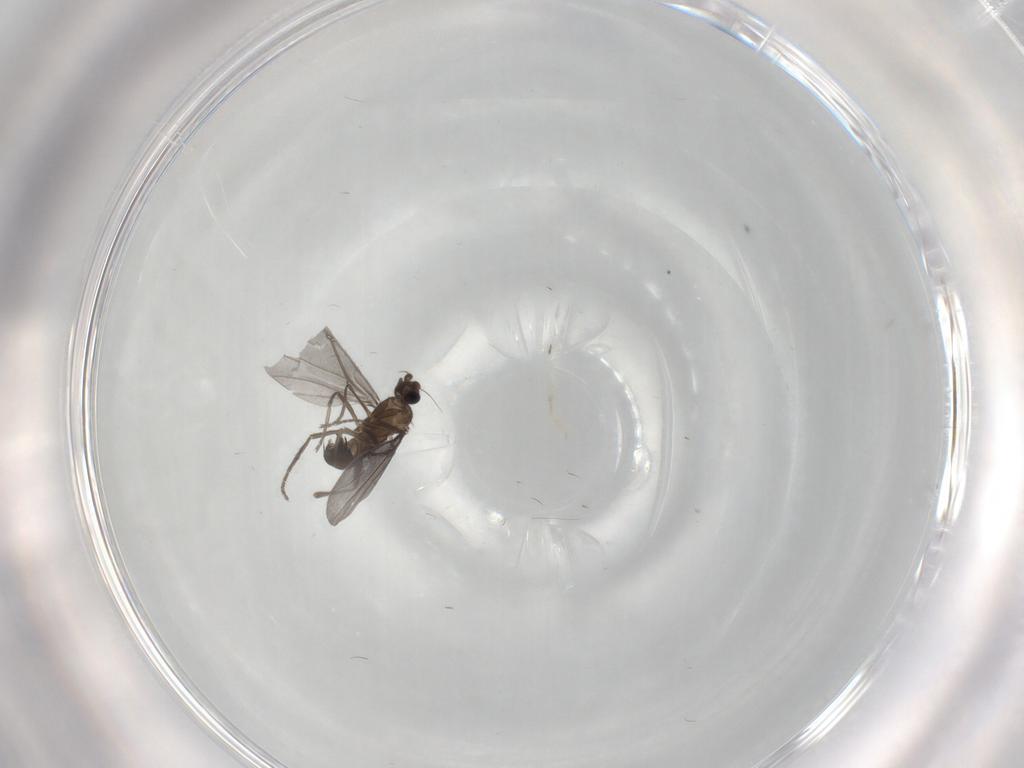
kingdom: Animalia
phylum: Arthropoda
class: Insecta
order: Diptera
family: Phoridae
